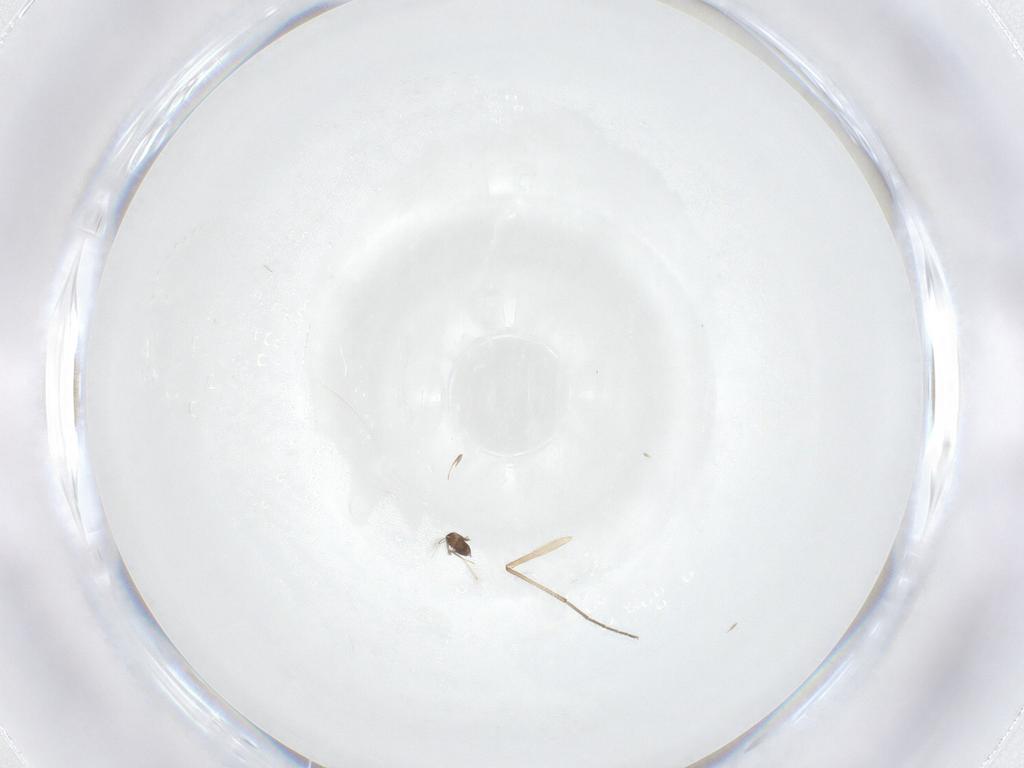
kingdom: Animalia
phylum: Arthropoda
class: Insecta
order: Diptera
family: Chironomidae
